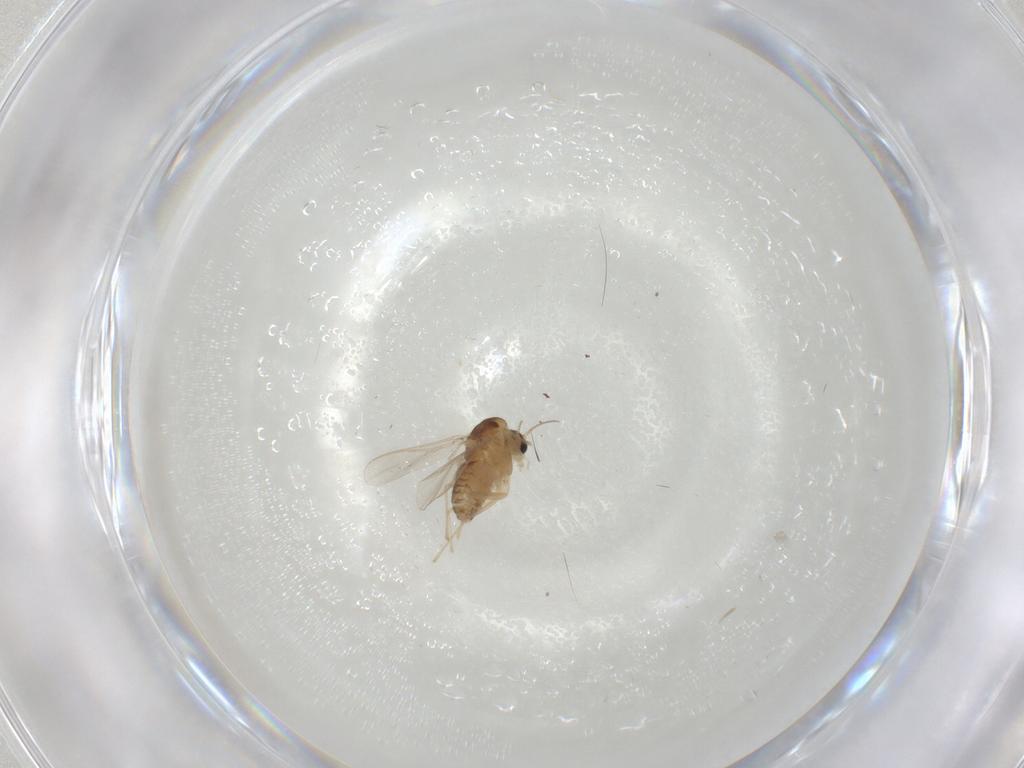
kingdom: Animalia
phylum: Arthropoda
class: Insecta
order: Diptera
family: Chironomidae
